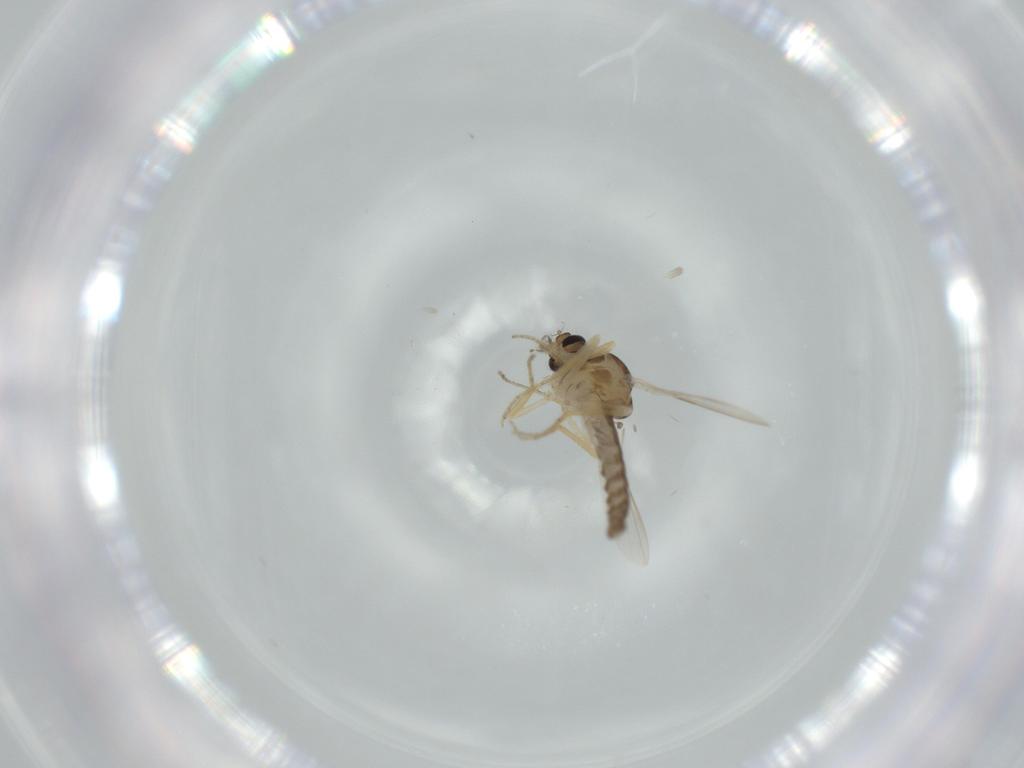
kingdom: Animalia
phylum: Arthropoda
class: Insecta
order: Diptera
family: Ceratopogonidae
